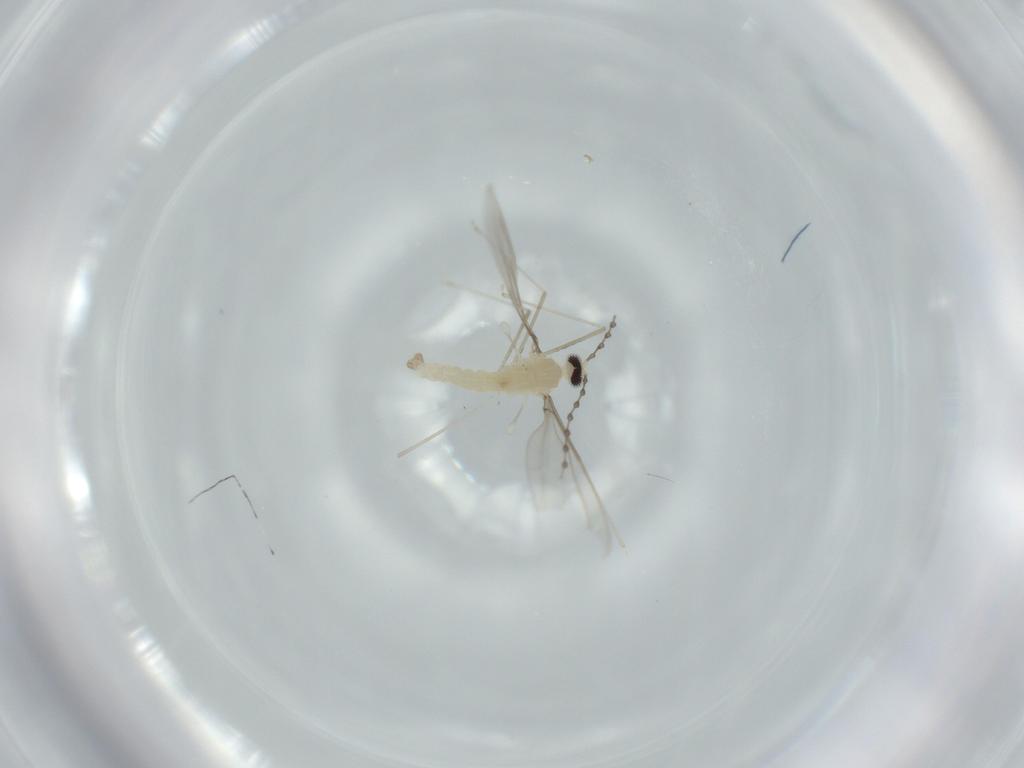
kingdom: Animalia
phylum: Arthropoda
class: Insecta
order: Diptera
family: Cecidomyiidae
